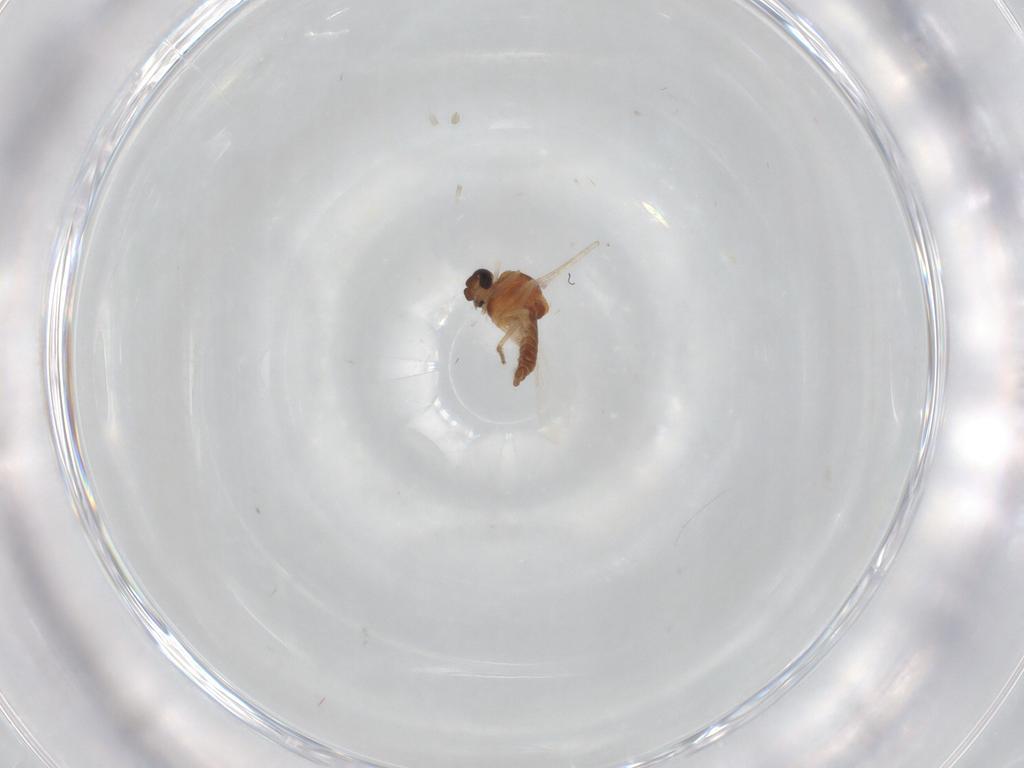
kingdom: Animalia
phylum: Arthropoda
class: Insecta
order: Diptera
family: Ceratopogonidae
